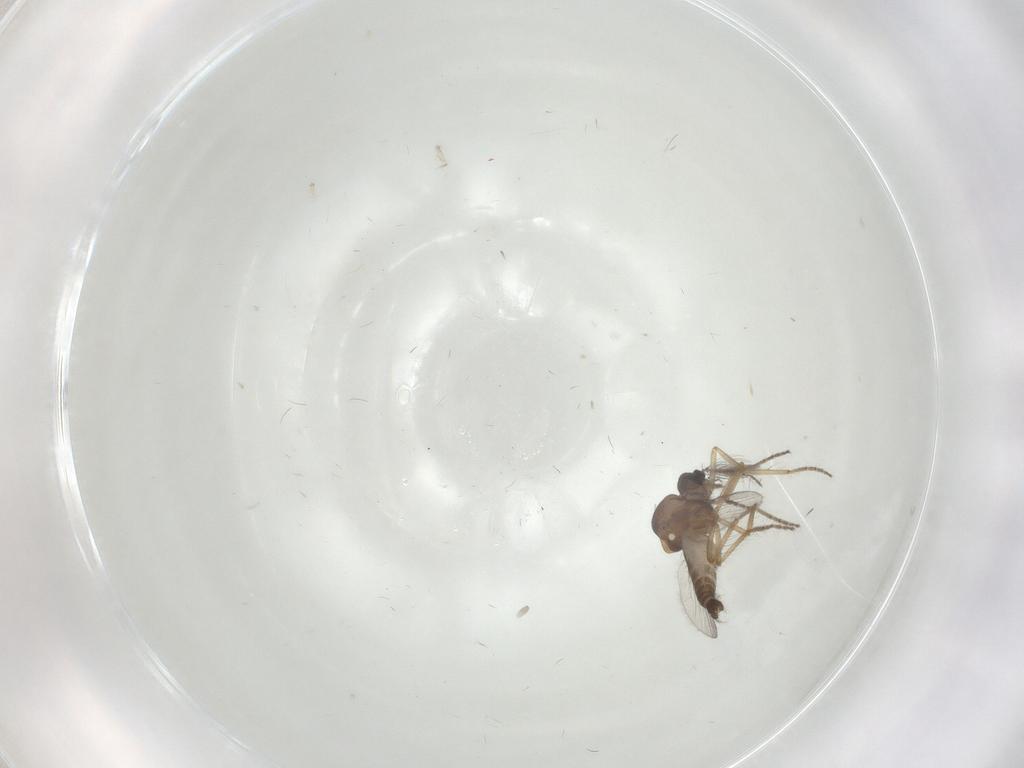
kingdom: Animalia
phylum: Arthropoda
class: Insecta
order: Diptera
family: Ceratopogonidae
